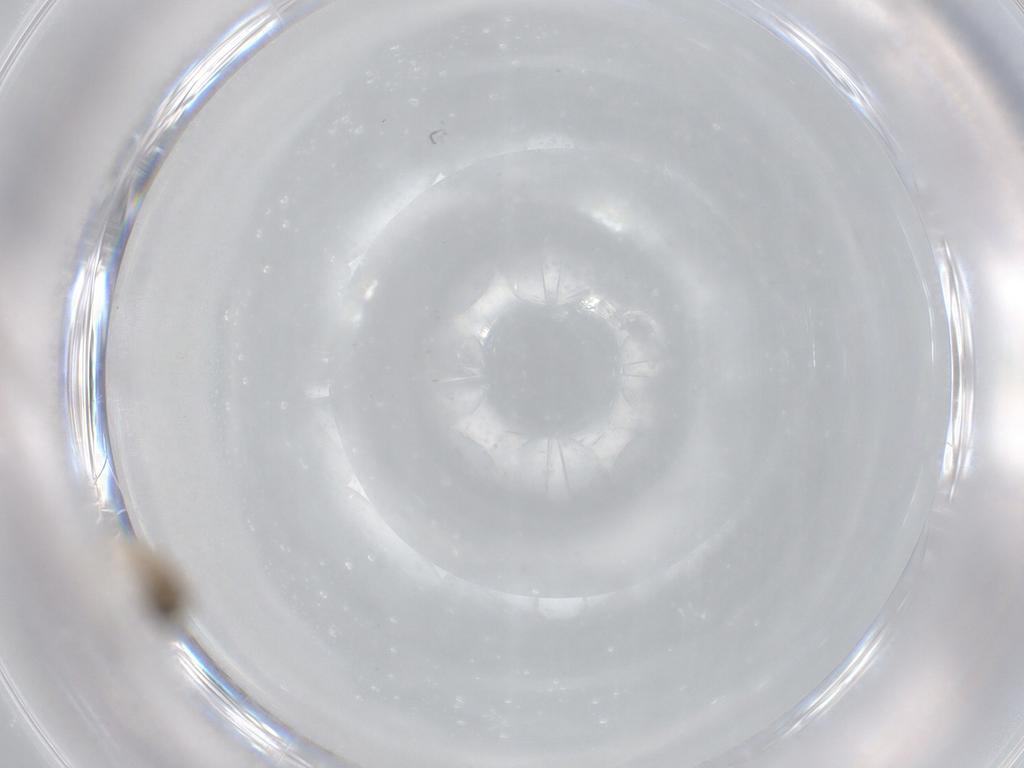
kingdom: Animalia
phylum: Arthropoda
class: Insecta
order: Diptera
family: Cecidomyiidae
